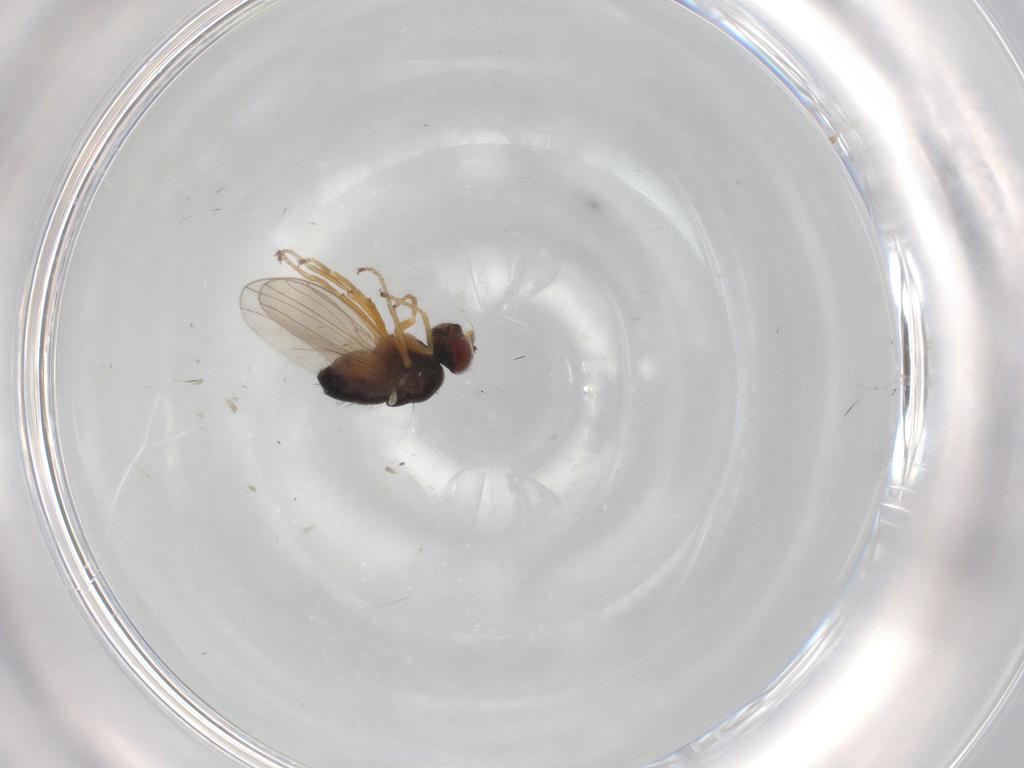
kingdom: Animalia
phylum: Arthropoda
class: Insecta
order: Diptera
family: Ephydridae
